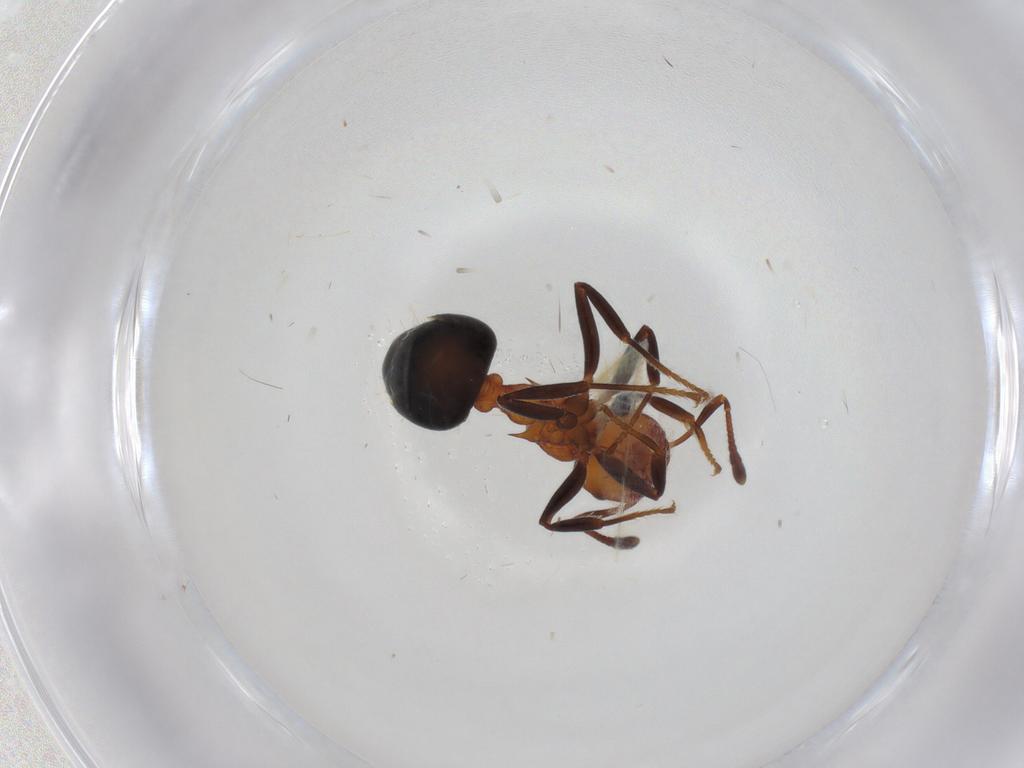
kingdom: Animalia
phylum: Arthropoda
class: Insecta
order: Hymenoptera
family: Formicidae
